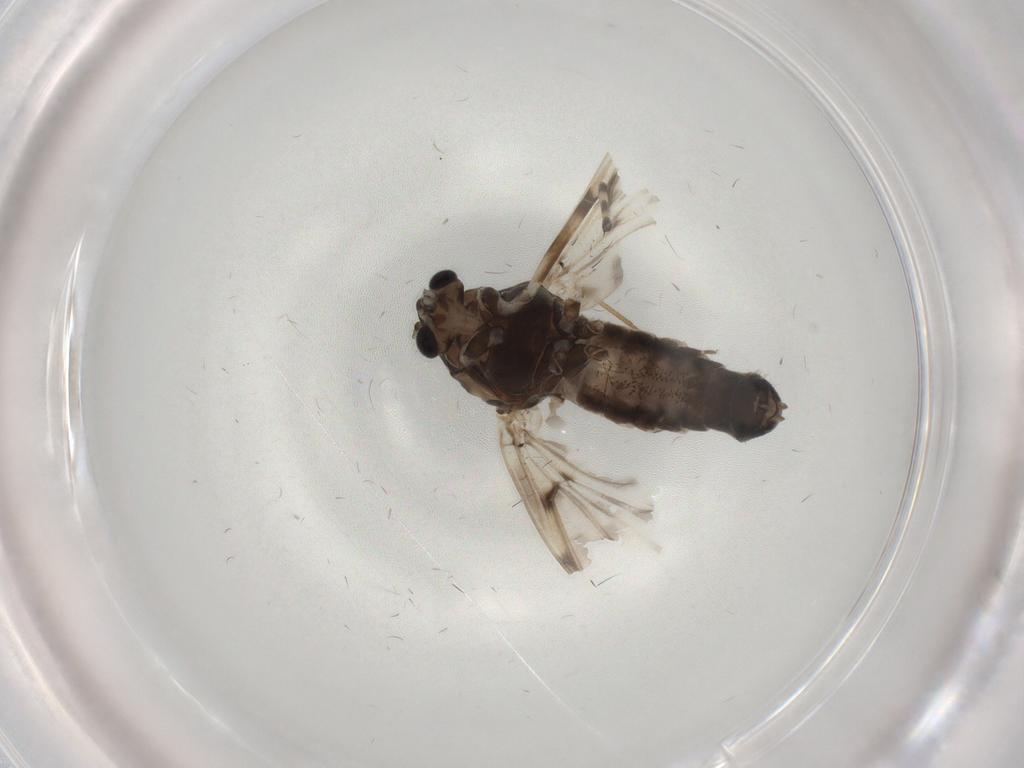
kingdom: Animalia
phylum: Arthropoda
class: Insecta
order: Diptera
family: Chironomidae
